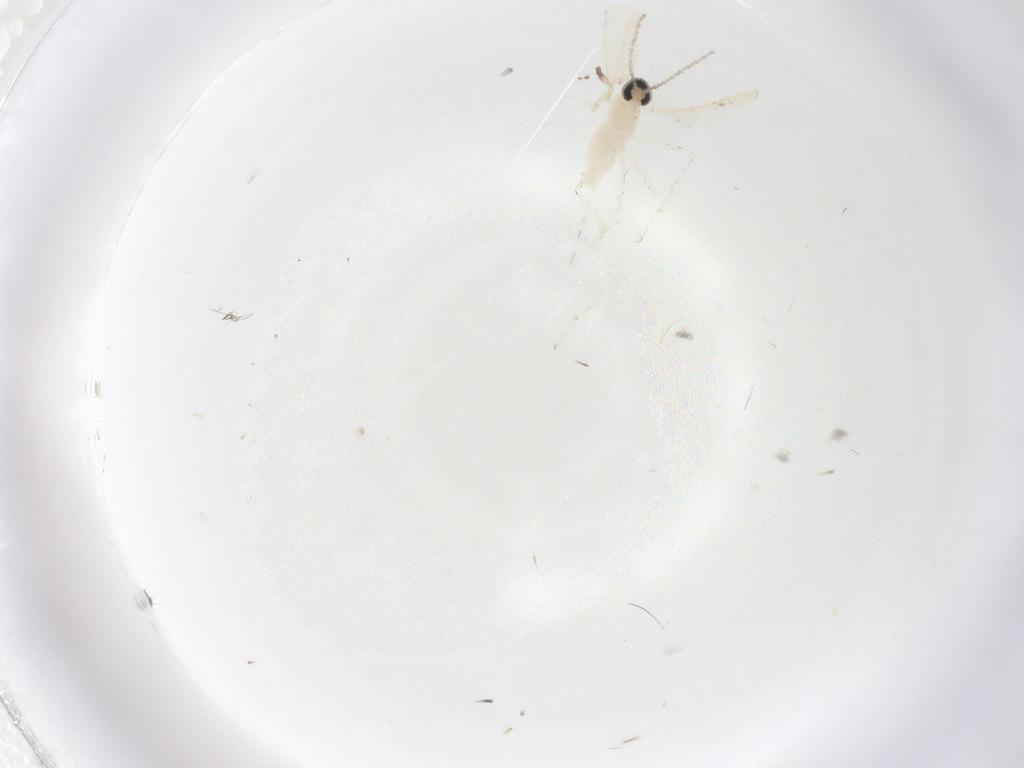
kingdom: Animalia
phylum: Arthropoda
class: Insecta
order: Diptera
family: Cecidomyiidae
